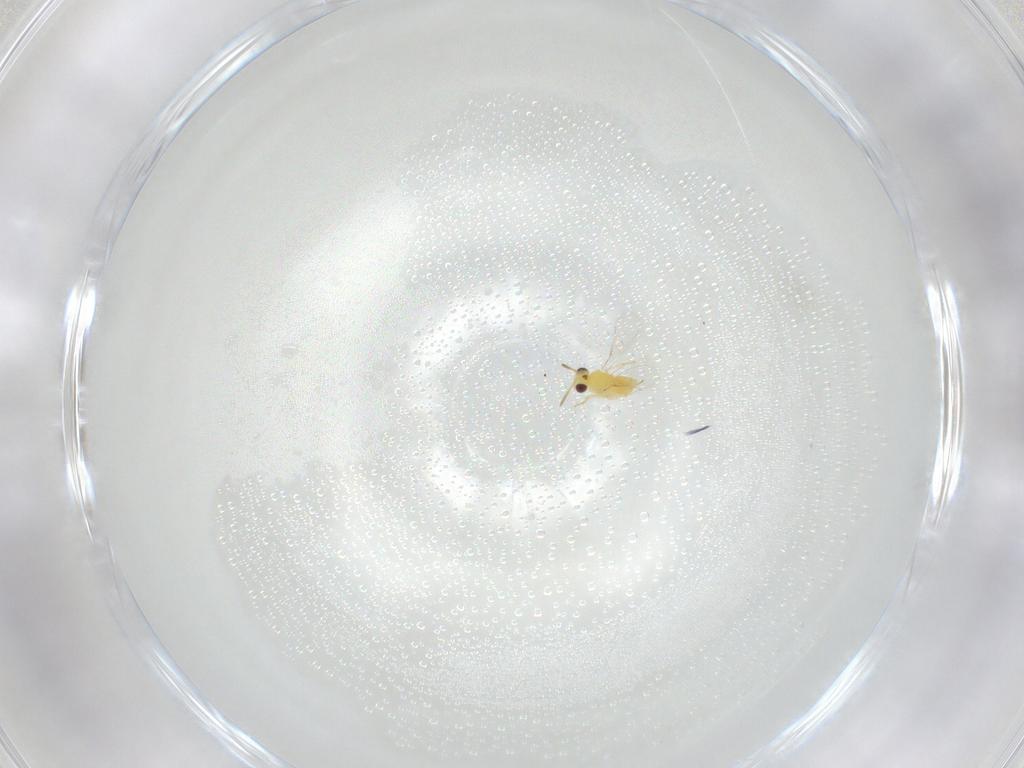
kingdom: Animalia
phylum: Arthropoda
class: Insecta
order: Hymenoptera
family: Aphelinidae
